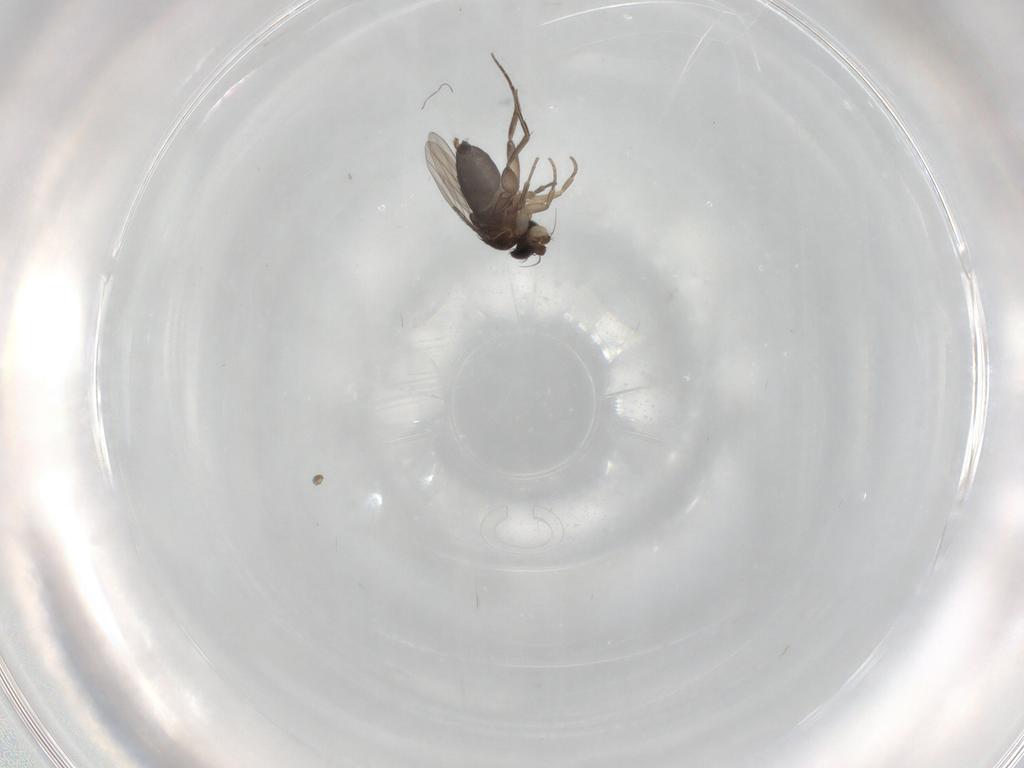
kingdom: Animalia
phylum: Arthropoda
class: Insecta
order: Diptera
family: Phoridae
